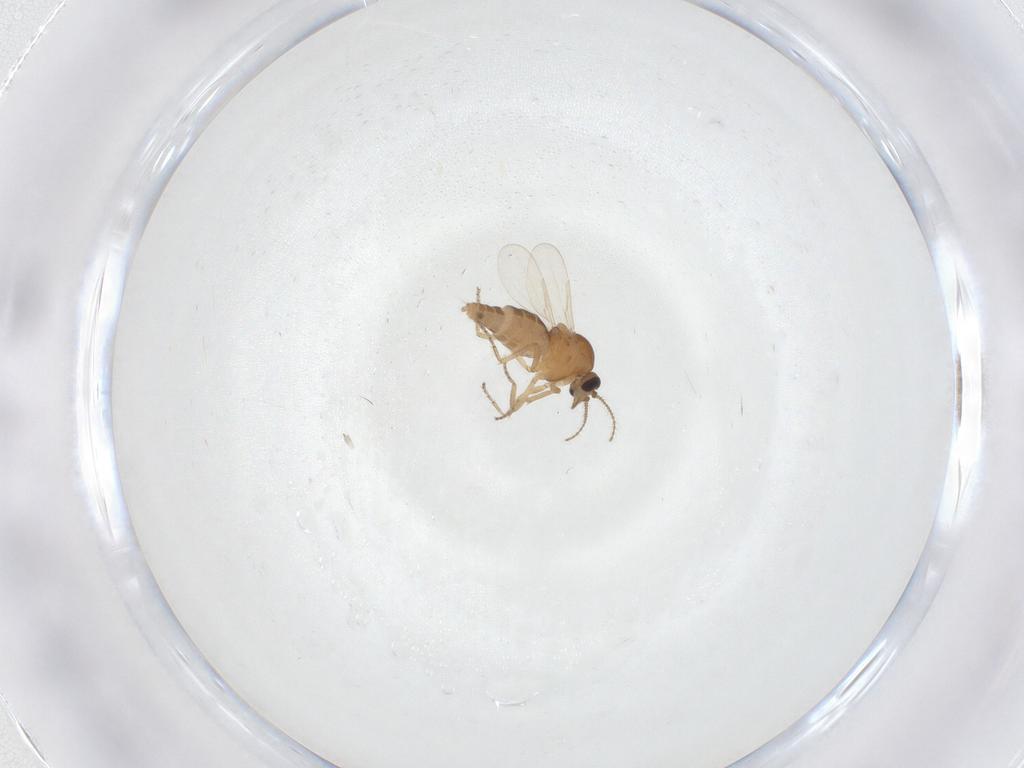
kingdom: Animalia
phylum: Arthropoda
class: Insecta
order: Diptera
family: Ceratopogonidae
